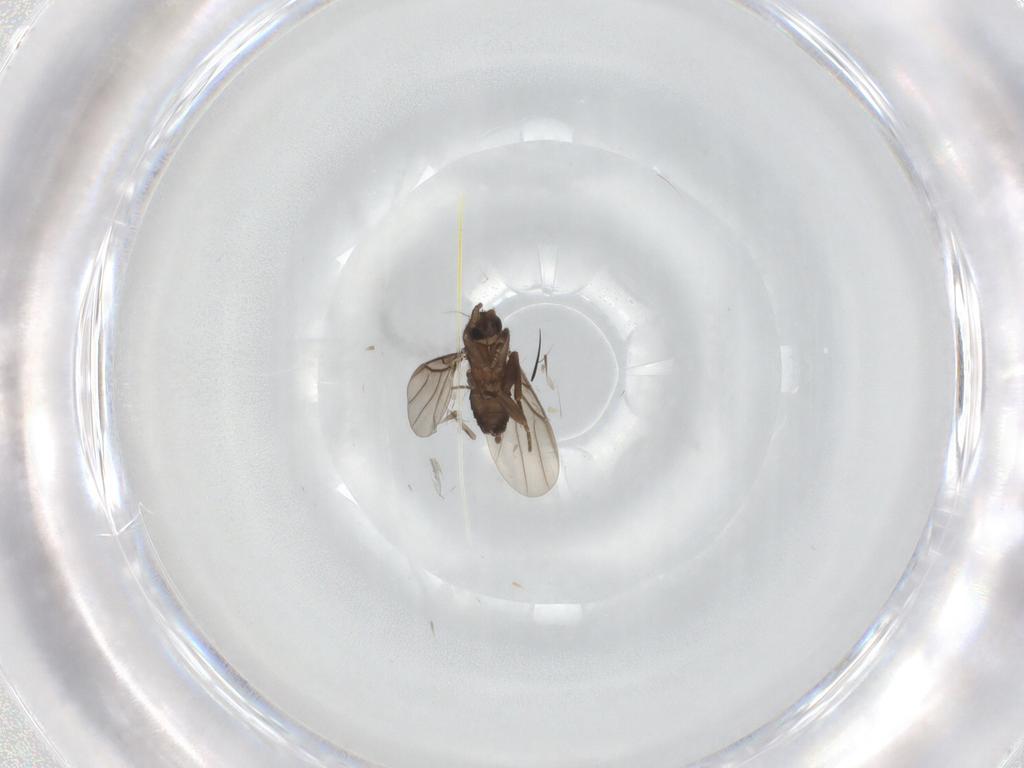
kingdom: Animalia
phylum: Arthropoda
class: Insecta
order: Diptera
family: Phoridae
